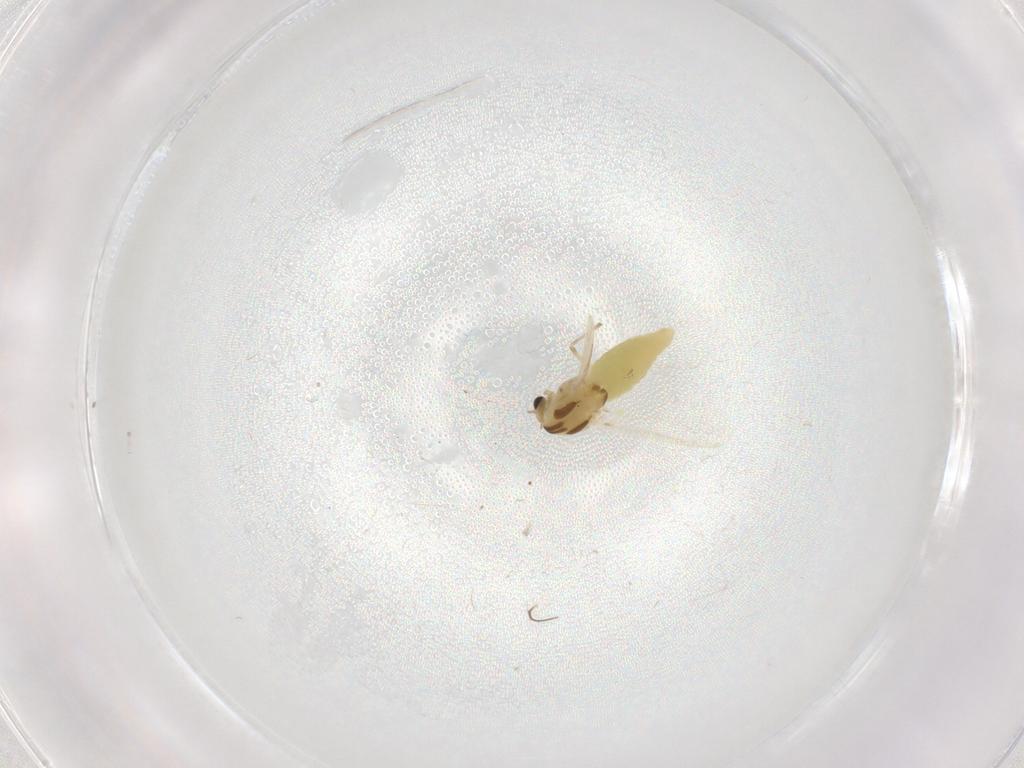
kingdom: Animalia
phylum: Arthropoda
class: Insecta
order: Diptera
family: Chironomidae
